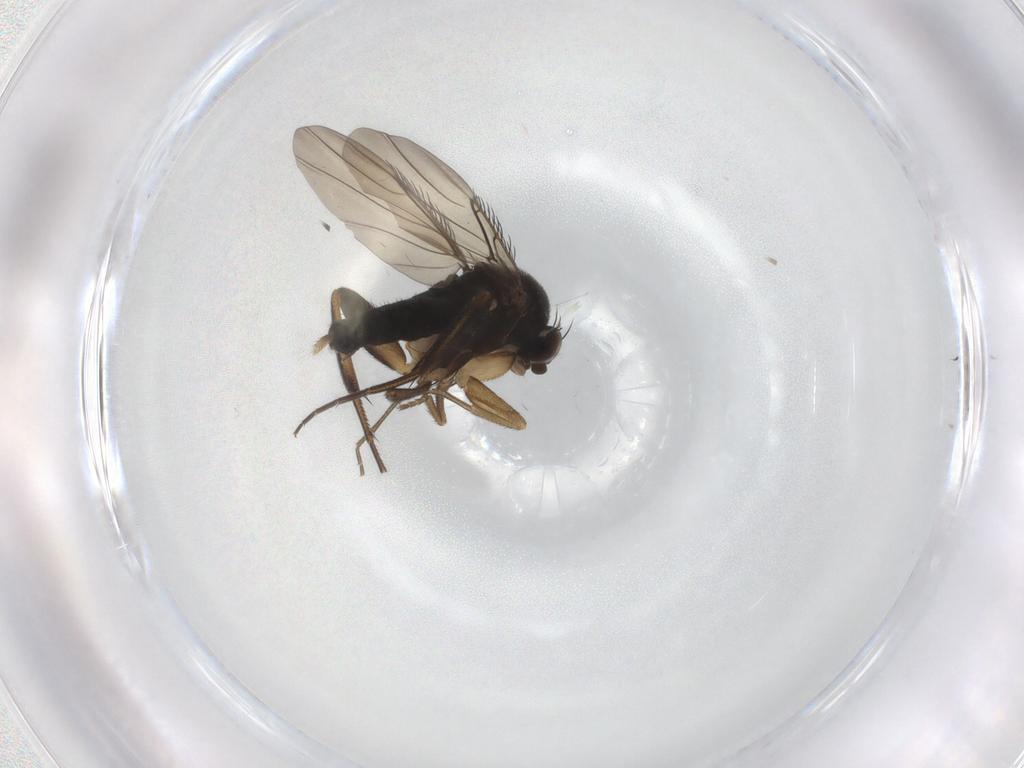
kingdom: Animalia
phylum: Arthropoda
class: Insecta
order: Diptera
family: Phoridae
